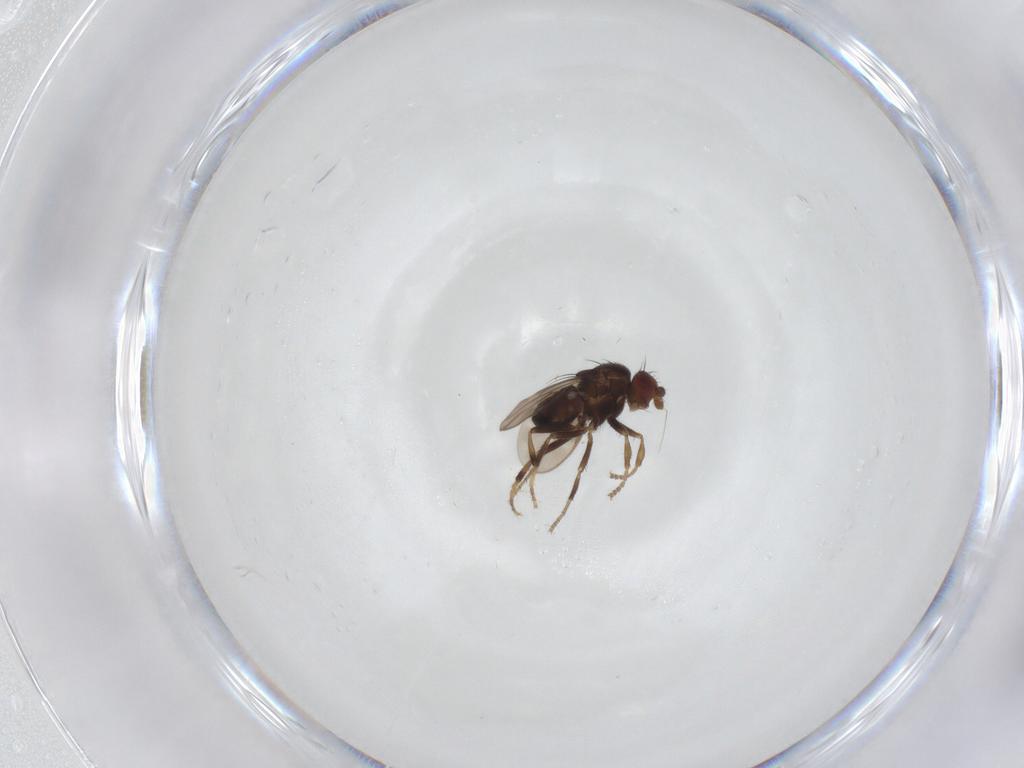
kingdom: Animalia
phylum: Arthropoda
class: Insecta
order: Diptera
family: Sphaeroceridae
